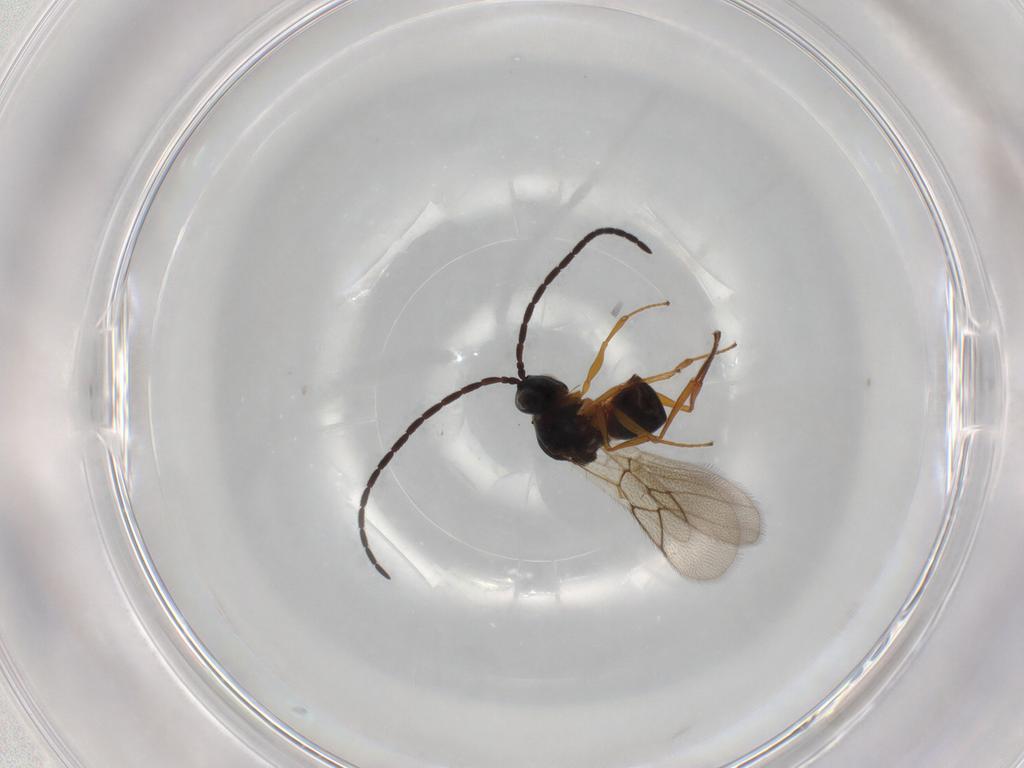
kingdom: Animalia
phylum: Arthropoda
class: Insecta
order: Hymenoptera
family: Figitidae
